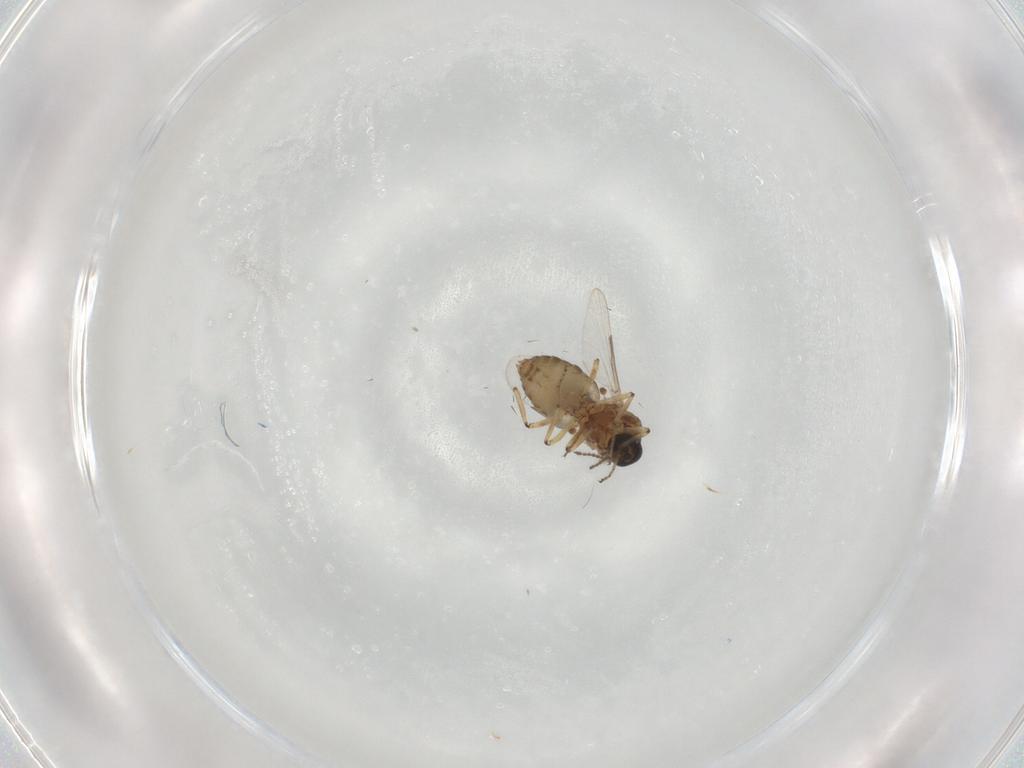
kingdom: Animalia
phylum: Arthropoda
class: Insecta
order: Diptera
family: Ceratopogonidae
